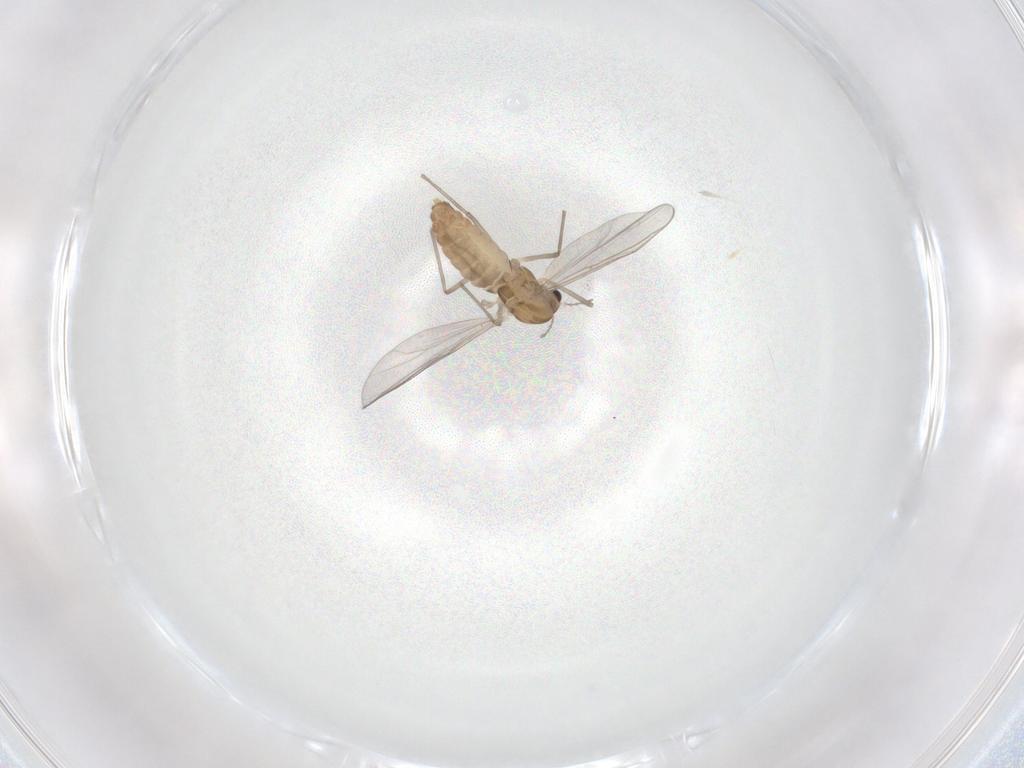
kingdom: Animalia
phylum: Arthropoda
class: Insecta
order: Diptera
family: Chironomidae
